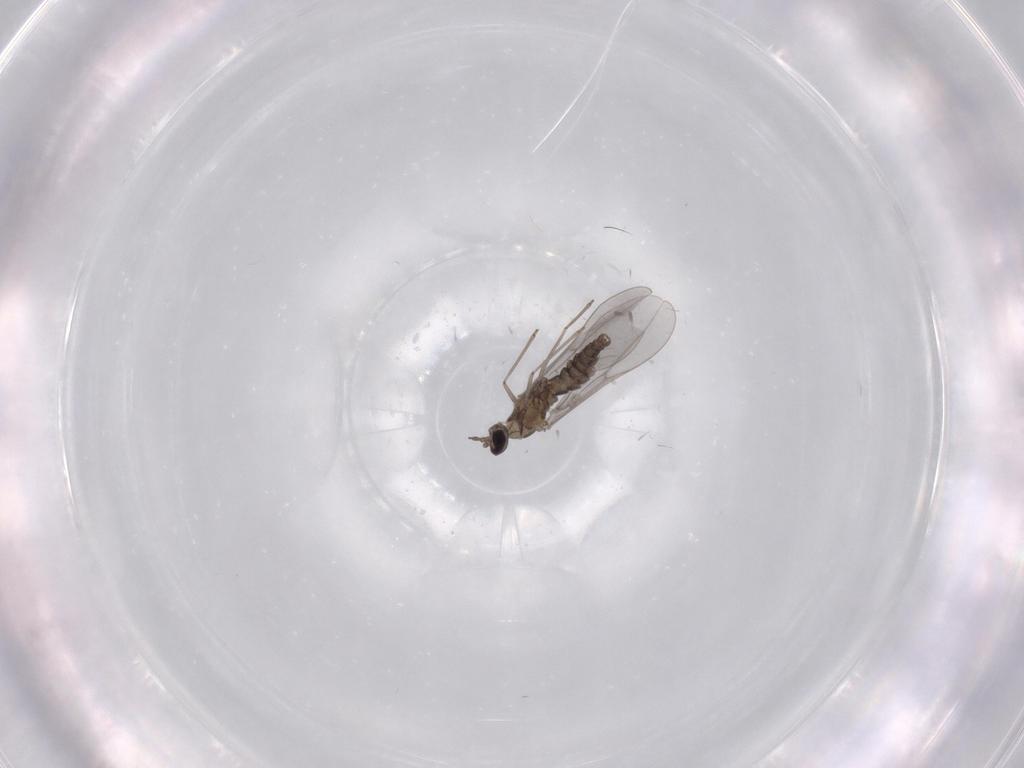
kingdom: Animalia
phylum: Arthropoda
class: Insecta
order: Diptera
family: Cecidomyiidae
